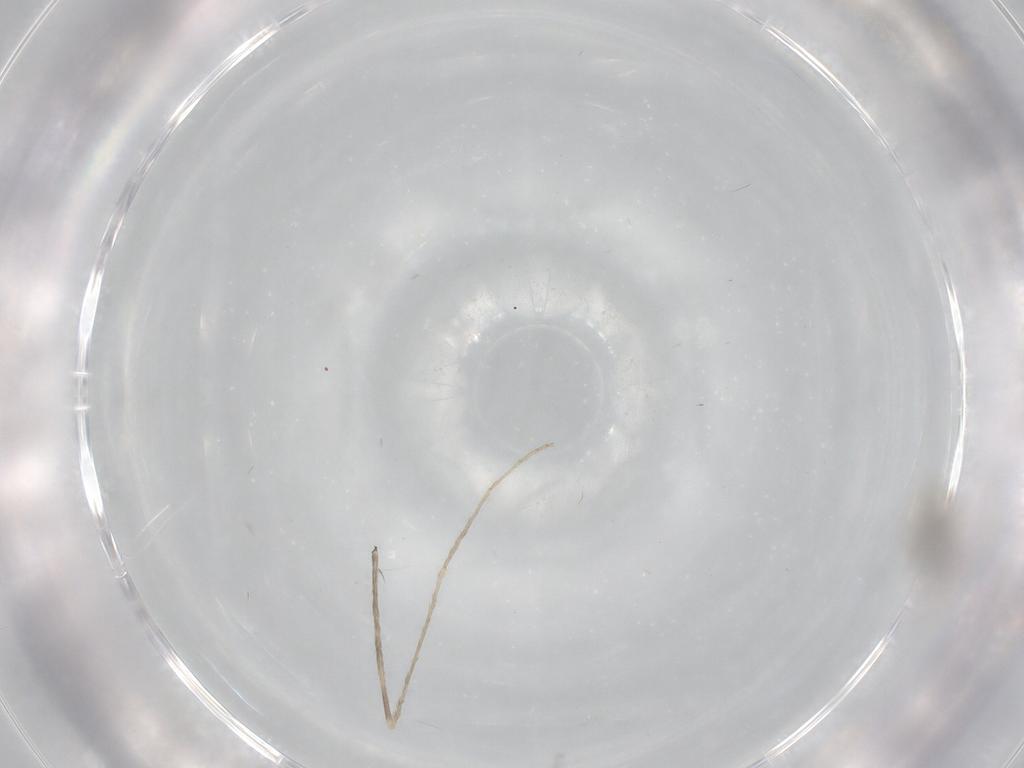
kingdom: Animalia
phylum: Arthropoda
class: Insecta
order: Diptera
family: Limoniidae
